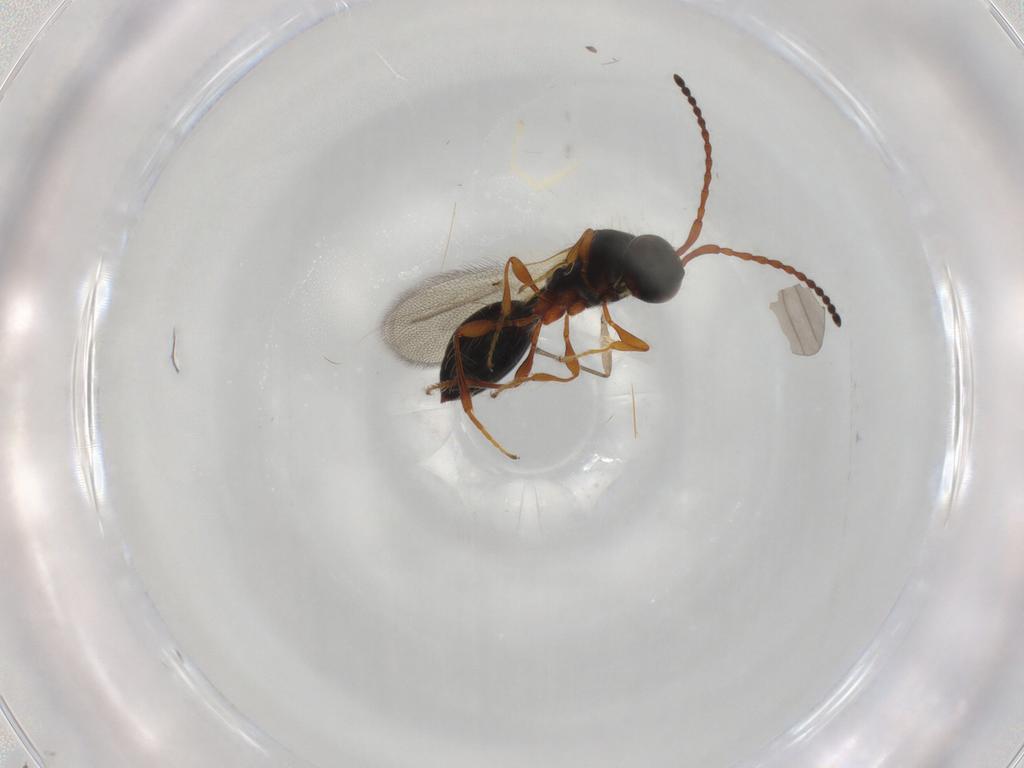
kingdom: Animalia
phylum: Arthropoda
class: Insecta
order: Hymenoptera
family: Diapriidae
